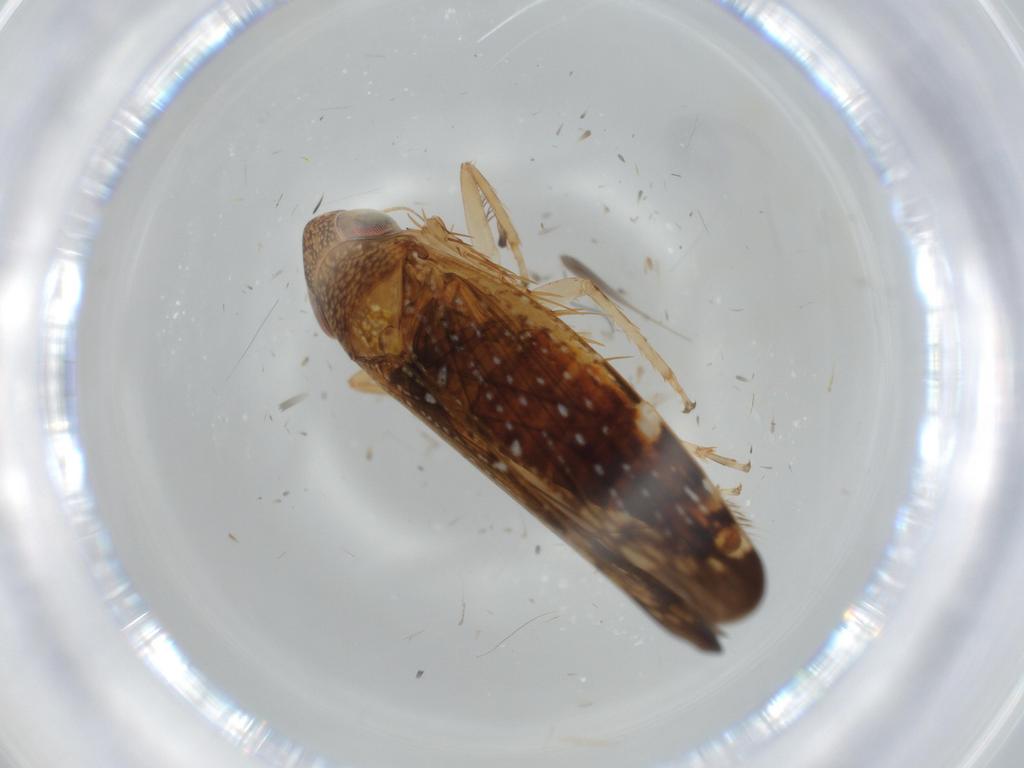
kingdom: Animalia
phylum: Arthropoda
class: Insecta
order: Hemiptera
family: Cicadellidae
